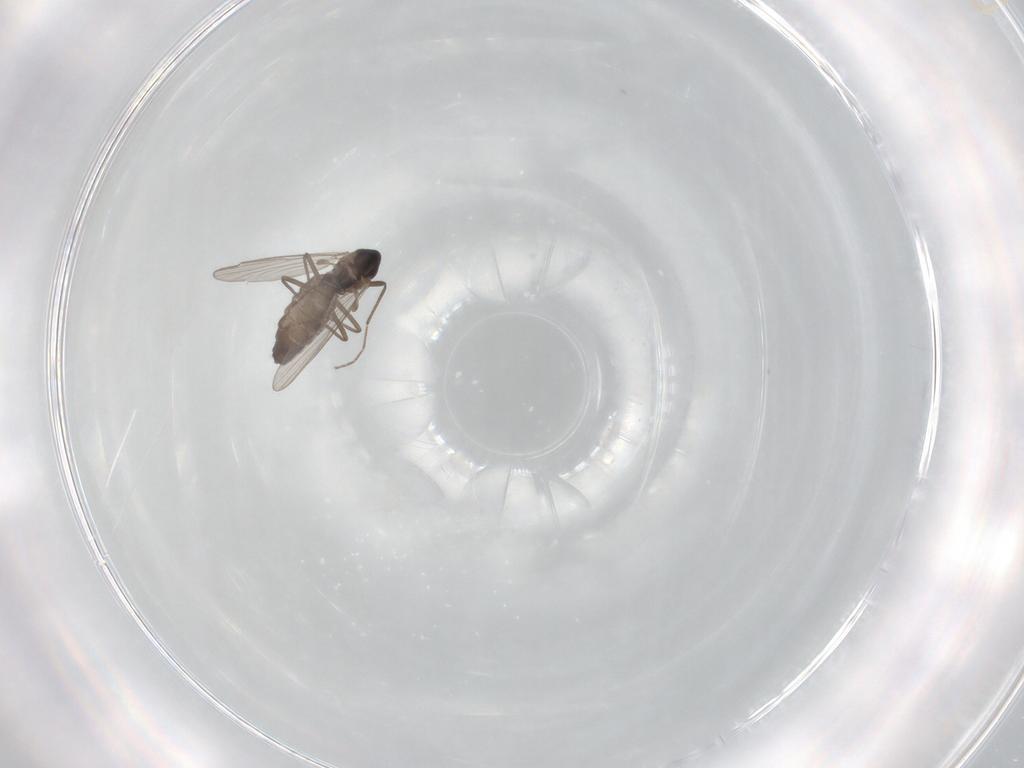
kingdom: Animalia
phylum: Arthropoda
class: Insecta
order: Diptera
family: Chironomidae
